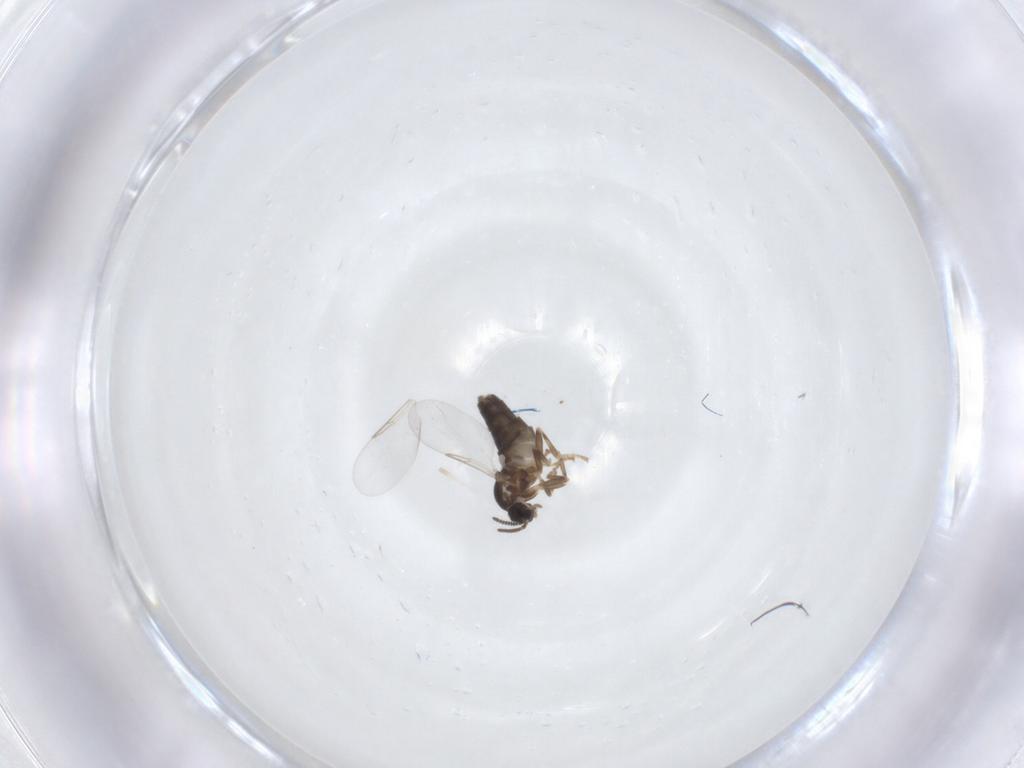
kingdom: Animalia
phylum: Arthropoda
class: Insecta
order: Diptera
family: Scatopsidae
